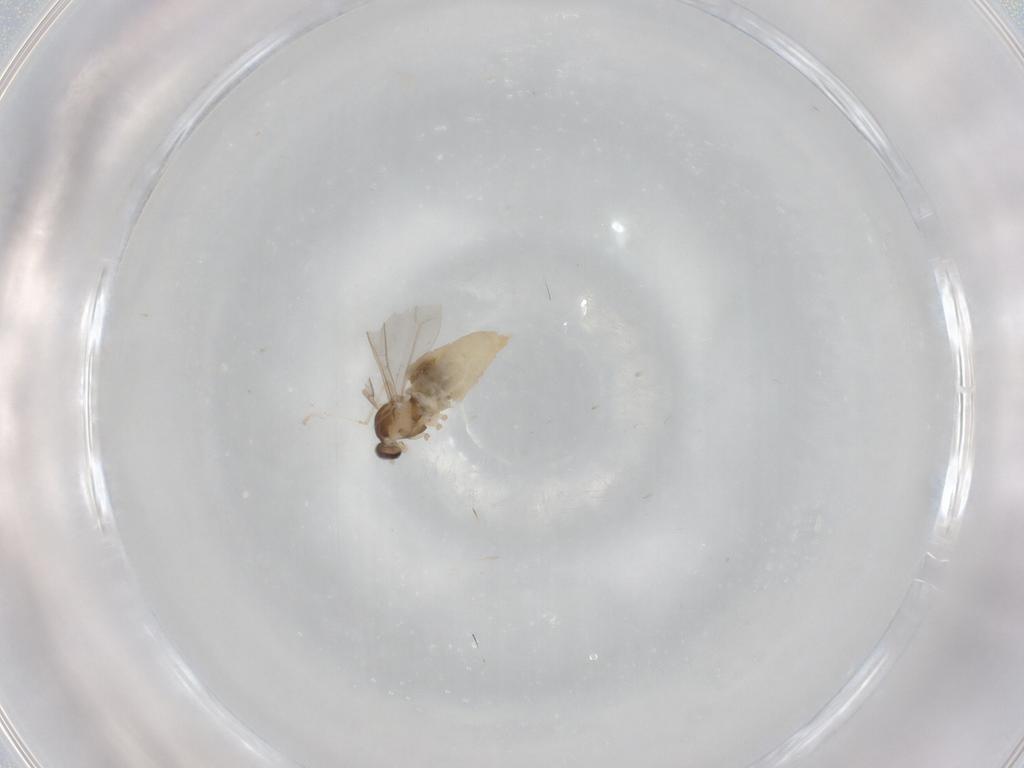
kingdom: Animalia
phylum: Arthropoda
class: Insecta
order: Diptera
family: Cecidomyiidae
